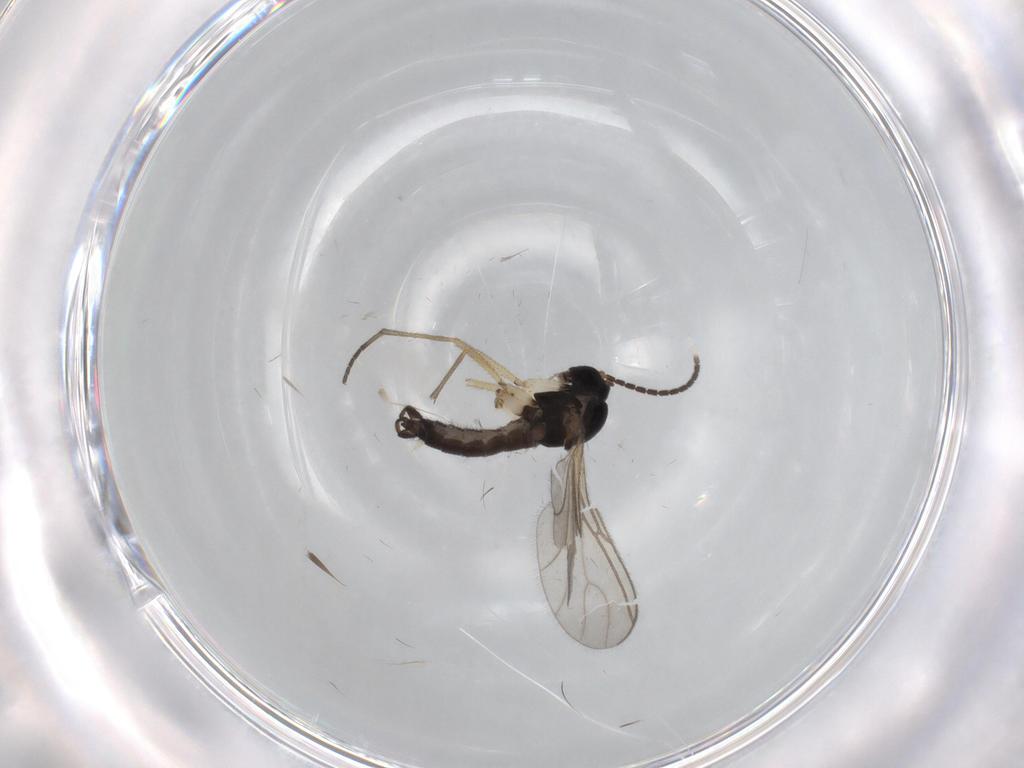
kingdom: Animalia
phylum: Arthropoda
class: Insecta
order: Diptera
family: Sciaridae
